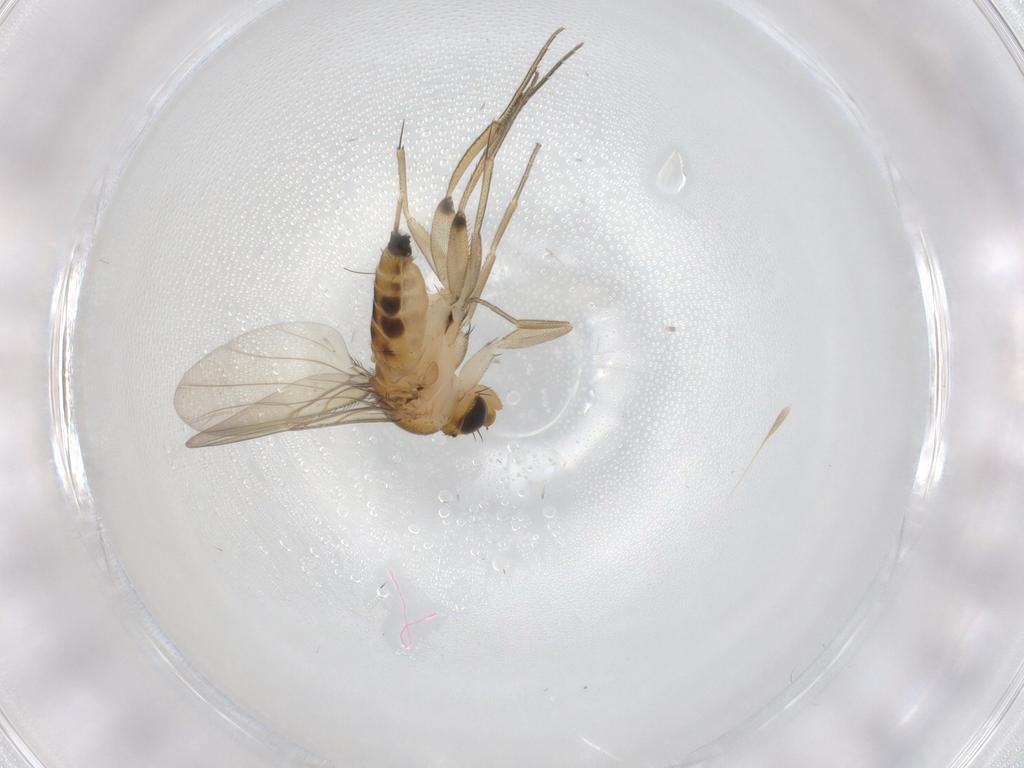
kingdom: Animalia
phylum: Arthropoda
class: Insecta
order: Diptera
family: Phoridae
